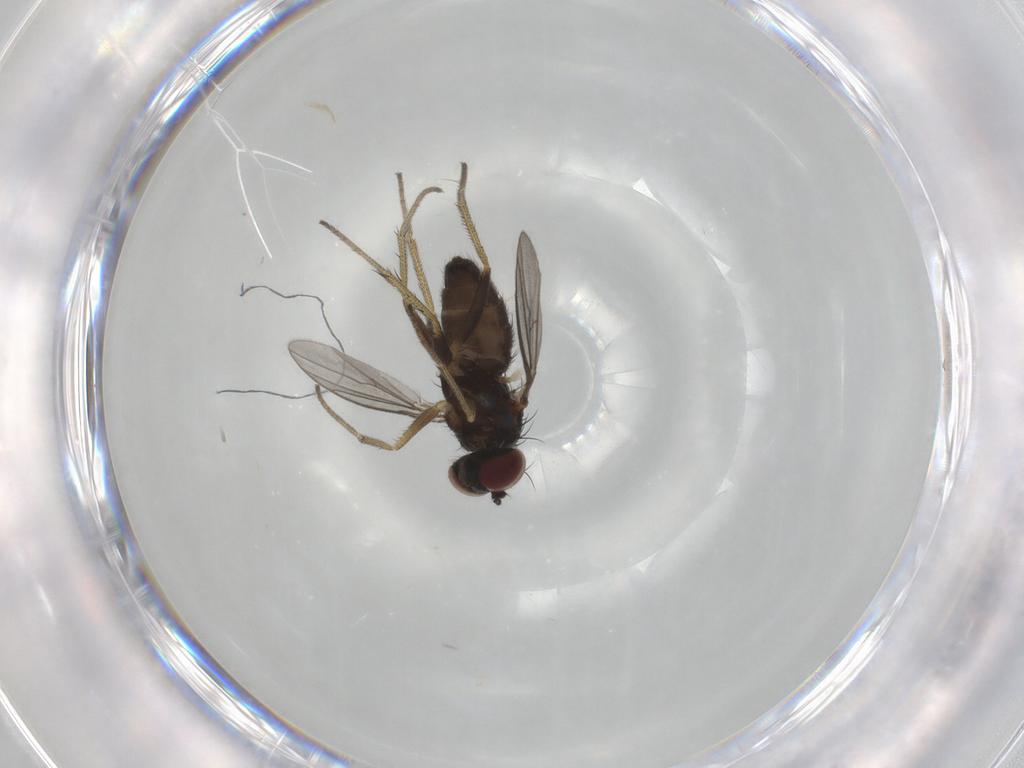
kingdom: Animalia
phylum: Arthropoda
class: Insecta
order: Diptera
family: Dolichopodidae
